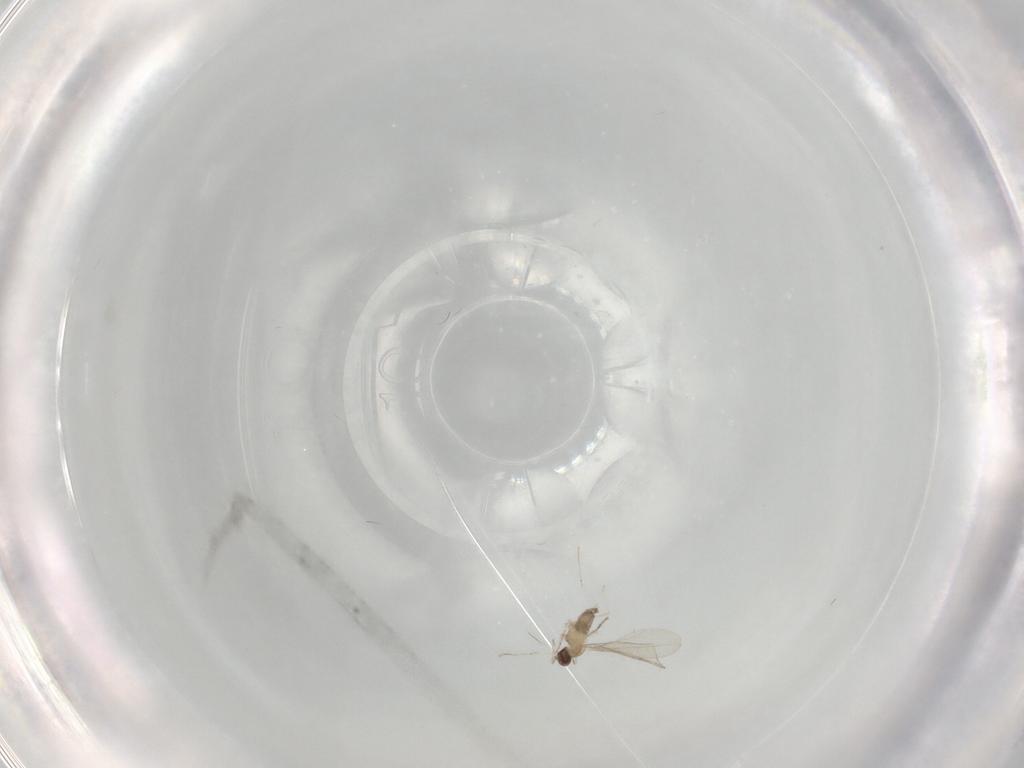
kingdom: Animalia
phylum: Arthropoda
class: Insecta
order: Diptera
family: Cecidomyiidae
